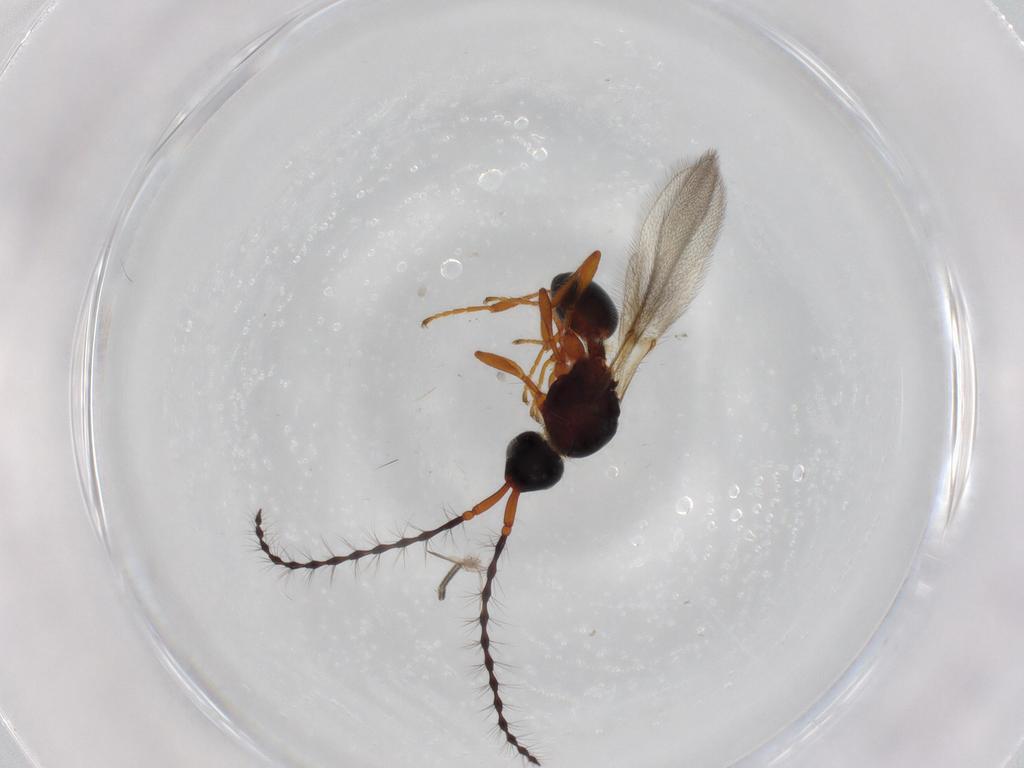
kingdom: Animalia
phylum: Arthropoda
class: Insecta
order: Hymenoptera
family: Diapriidae
